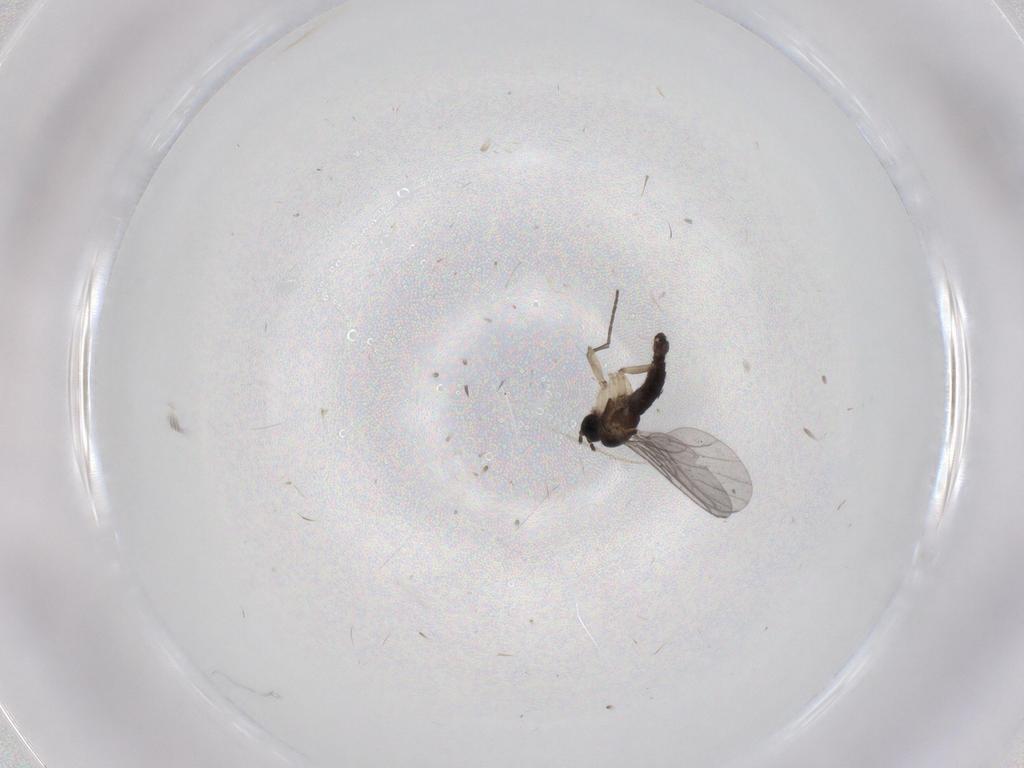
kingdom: Animalia
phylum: Arthropoda
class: Insecta
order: Diptera
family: Sciaridae
